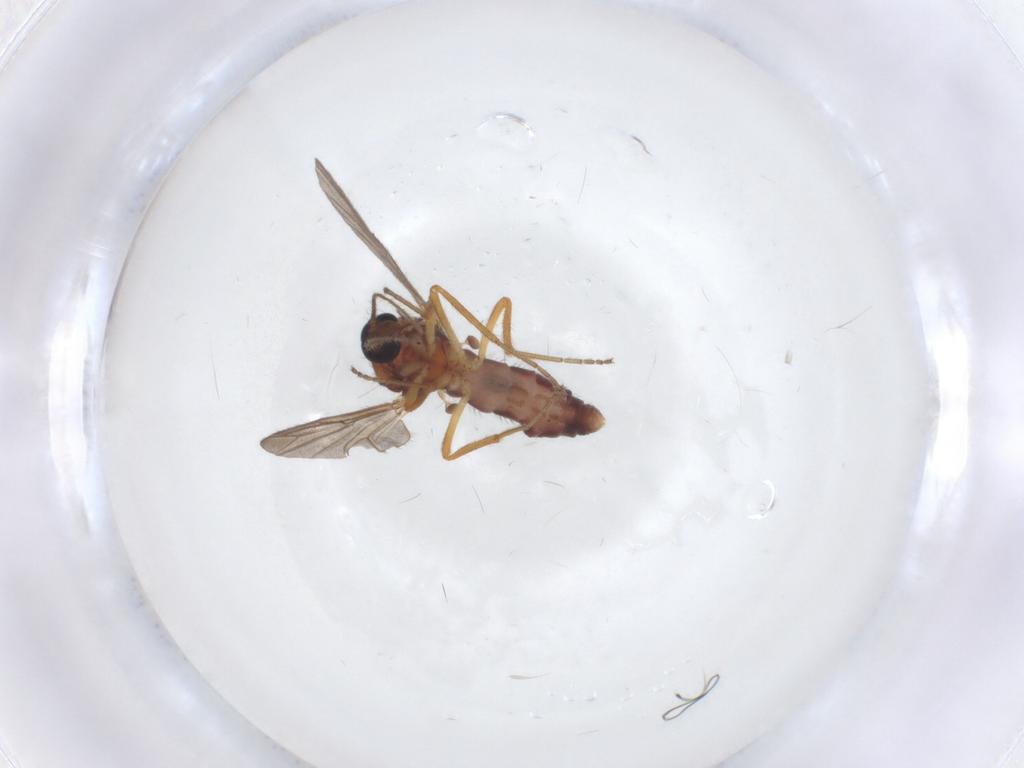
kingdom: Animalia
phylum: Arthropoda
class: Insecta
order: Diptera
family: Ceratopogonidae
